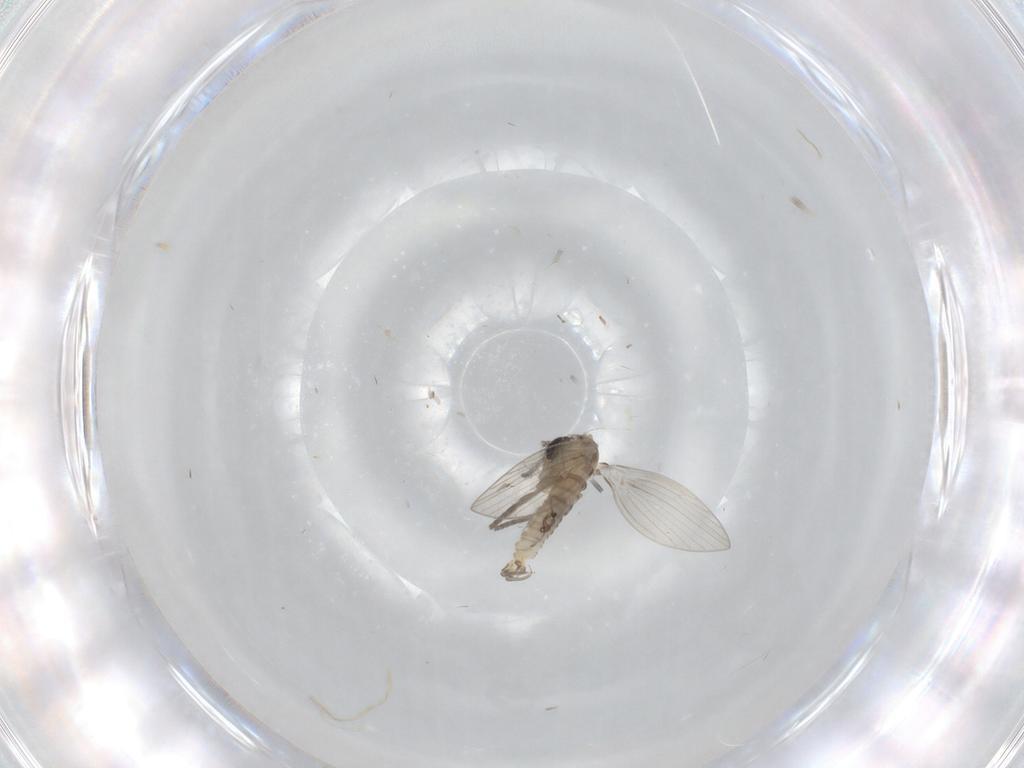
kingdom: Animalia
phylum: Arthropoda
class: Insecta
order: Diptera
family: Psychodidae
